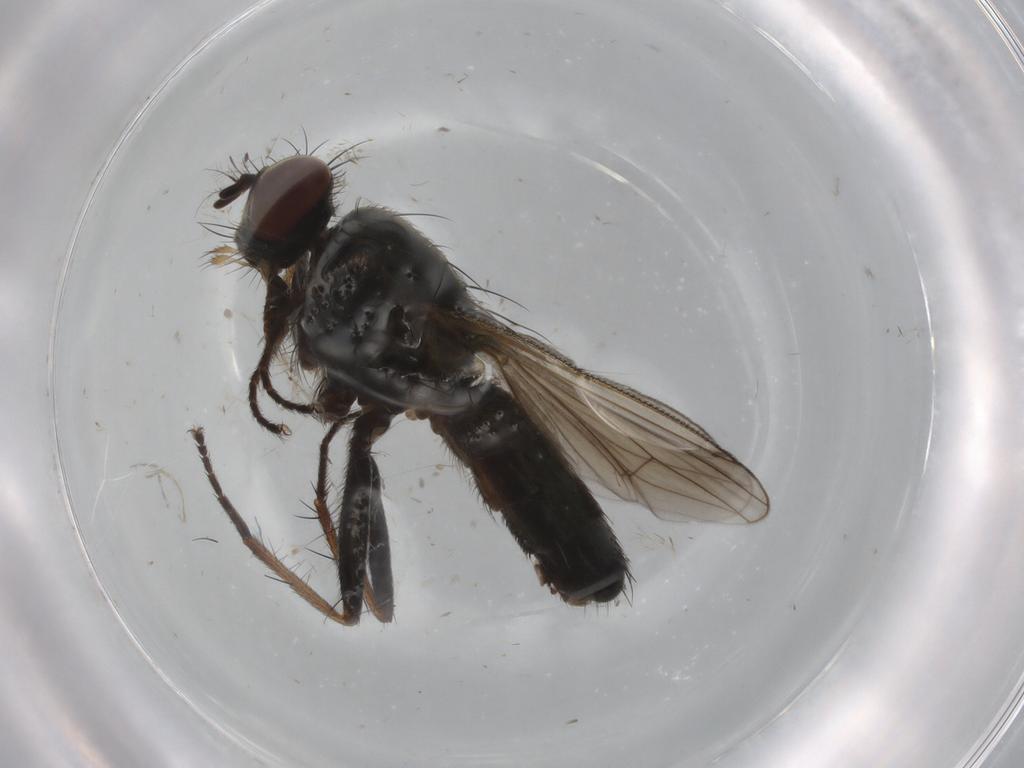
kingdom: Animalia
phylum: Arthropoda
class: Insecta
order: Diptera
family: Muscidae
